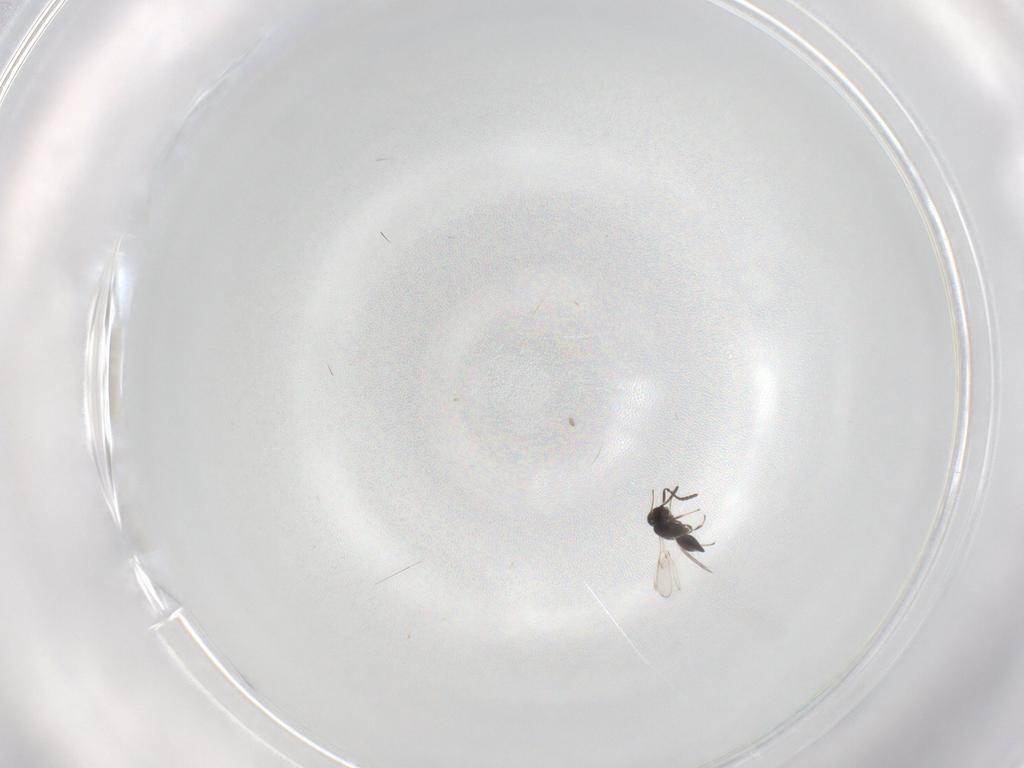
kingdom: Animalia
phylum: Arthropoda
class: Insecta
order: Hymenoptera
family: Scelionidae
